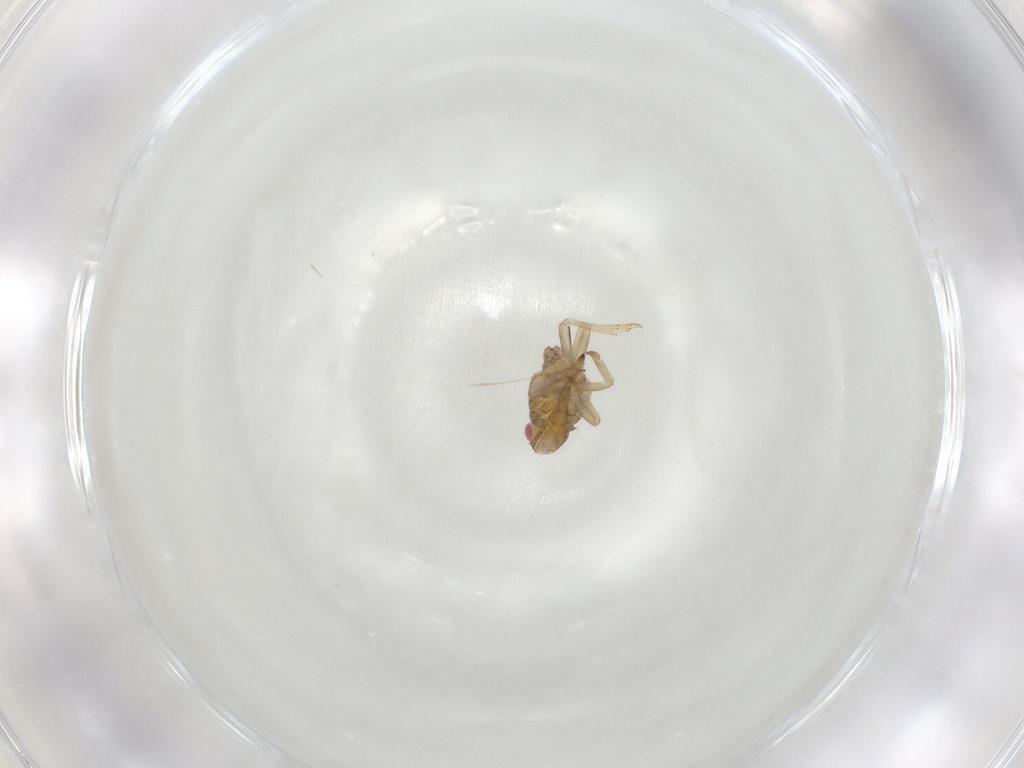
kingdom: Animalia
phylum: Arthropoda
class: Insecta
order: Hemiptera
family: Tropiduchidae
